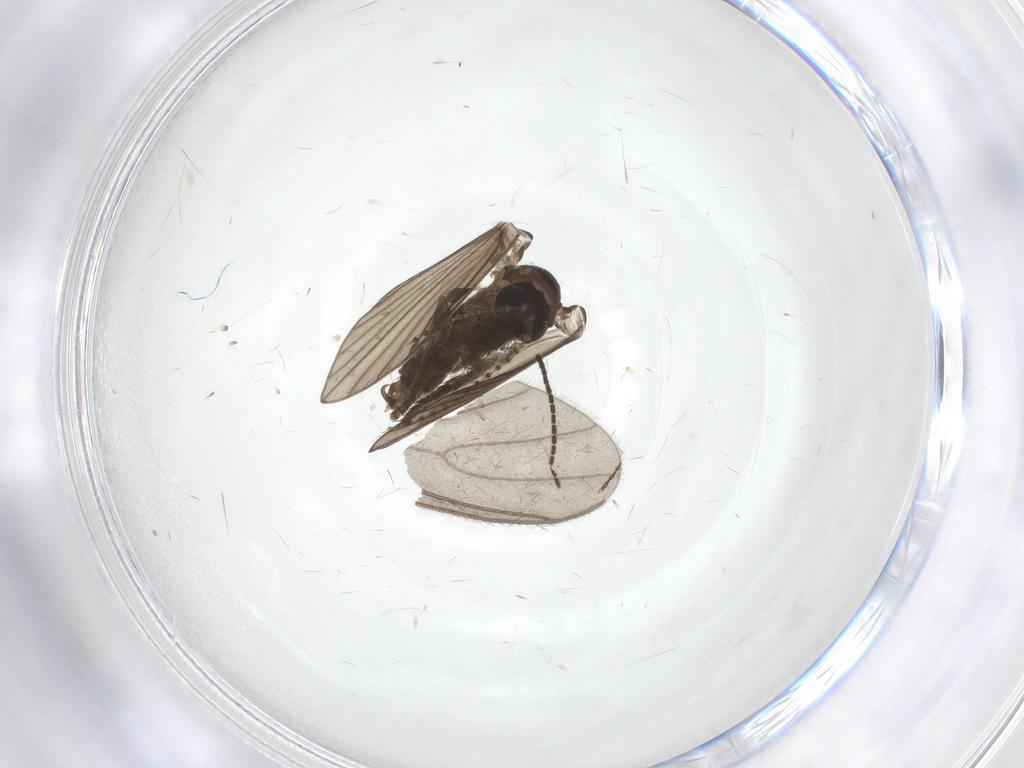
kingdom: Animalia
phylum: Arthropoda
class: Insecta
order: Diptera
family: Psychodidae
